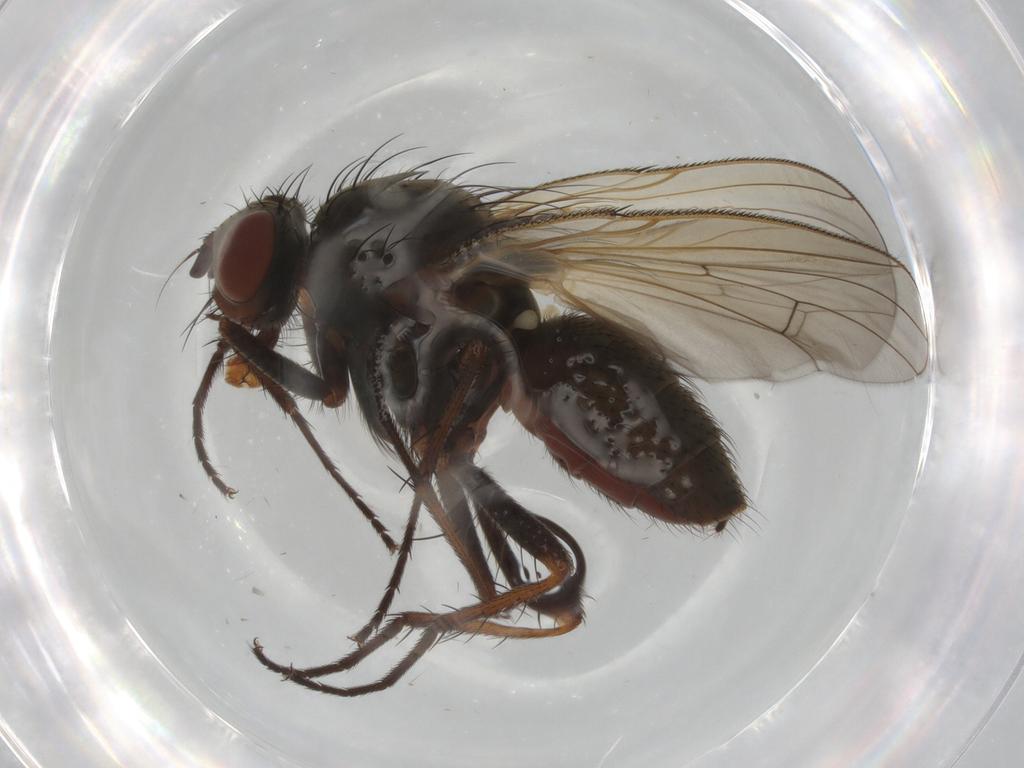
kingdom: Animalia
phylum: Arthropoda
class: Insecta
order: Diptera
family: Anthomyiidae
